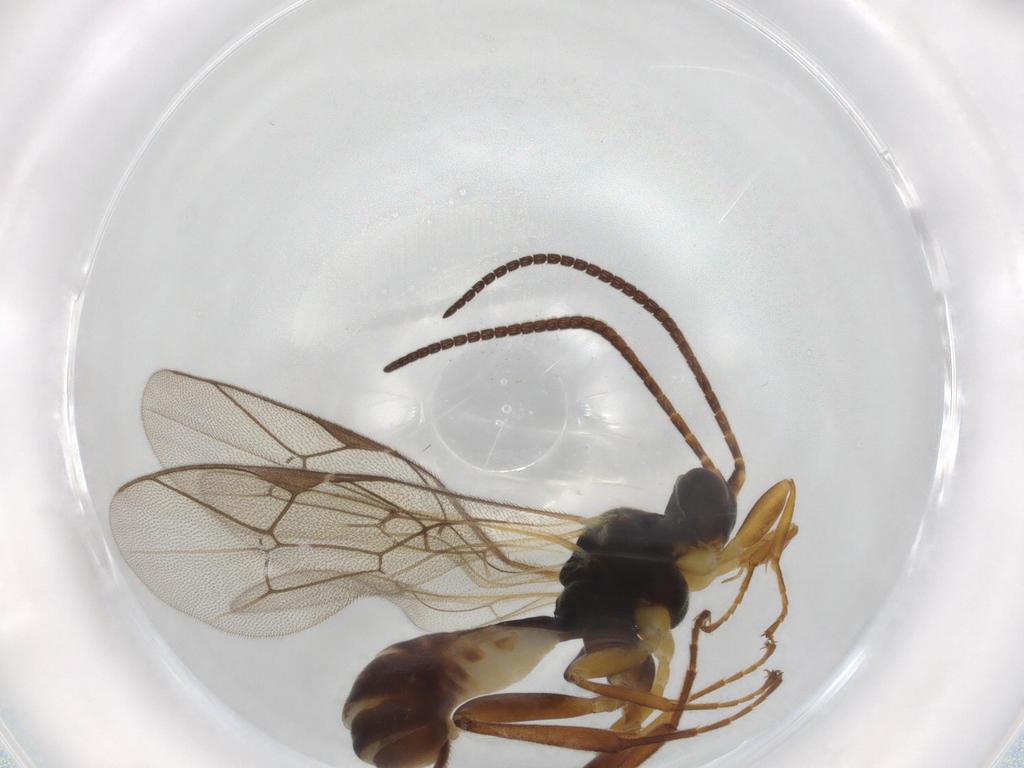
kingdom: Animalia
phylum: Arthropoda
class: Insecta
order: Hymenoptera
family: Ichneumonidae
